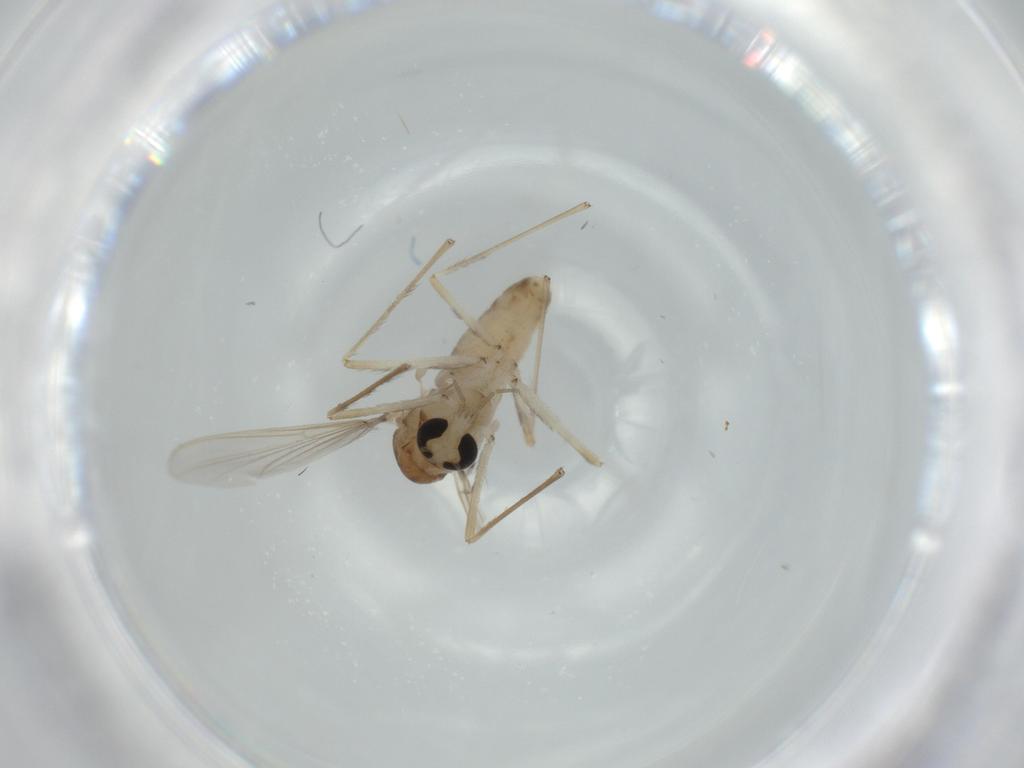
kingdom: Animalia
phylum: Arthropoda
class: Insecta
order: Diptera
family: Chironomidae
